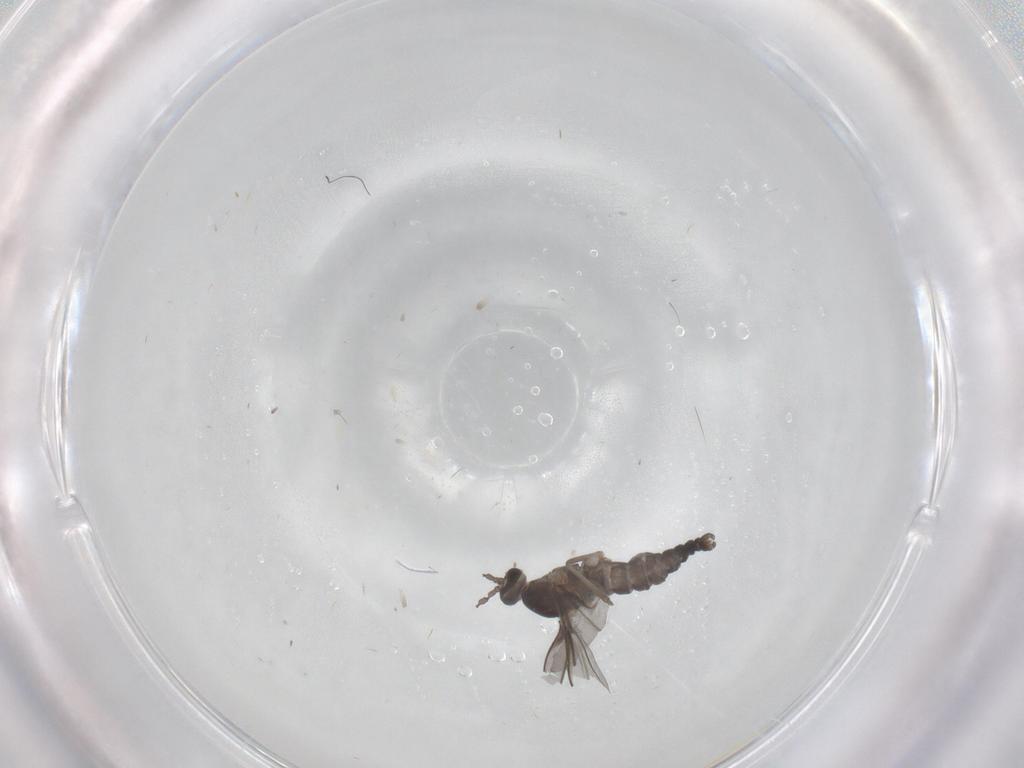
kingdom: Animalia
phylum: Arthropoda
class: Insecta
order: Diptera
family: Cecidomyiidae
